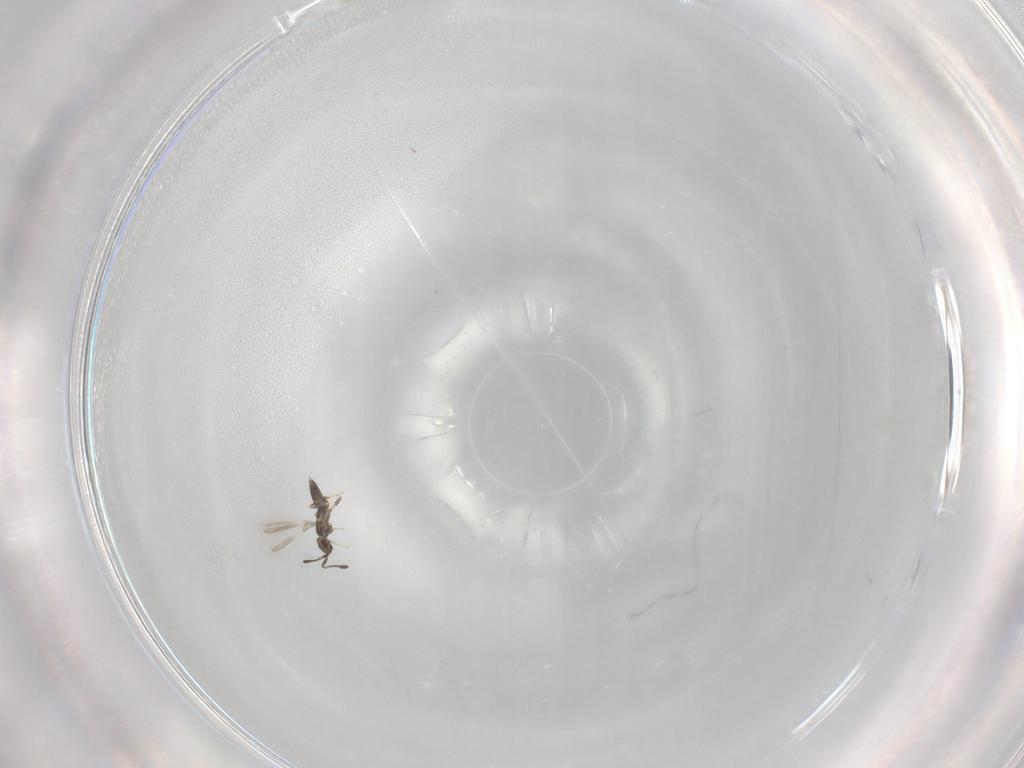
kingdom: Animalia
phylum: Arthropoda
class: Insecta
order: Hymenoptera
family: Mymaridae
